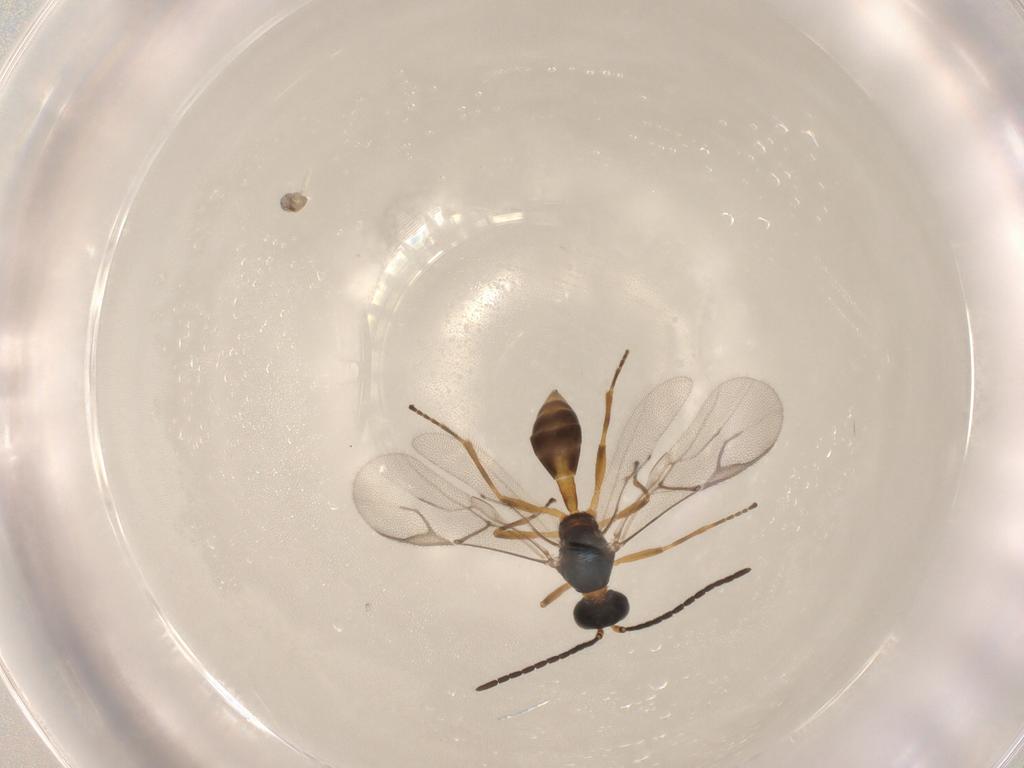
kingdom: Animalia
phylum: Arthropoda
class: Insecta
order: Hymenoptera
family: Braconidae
